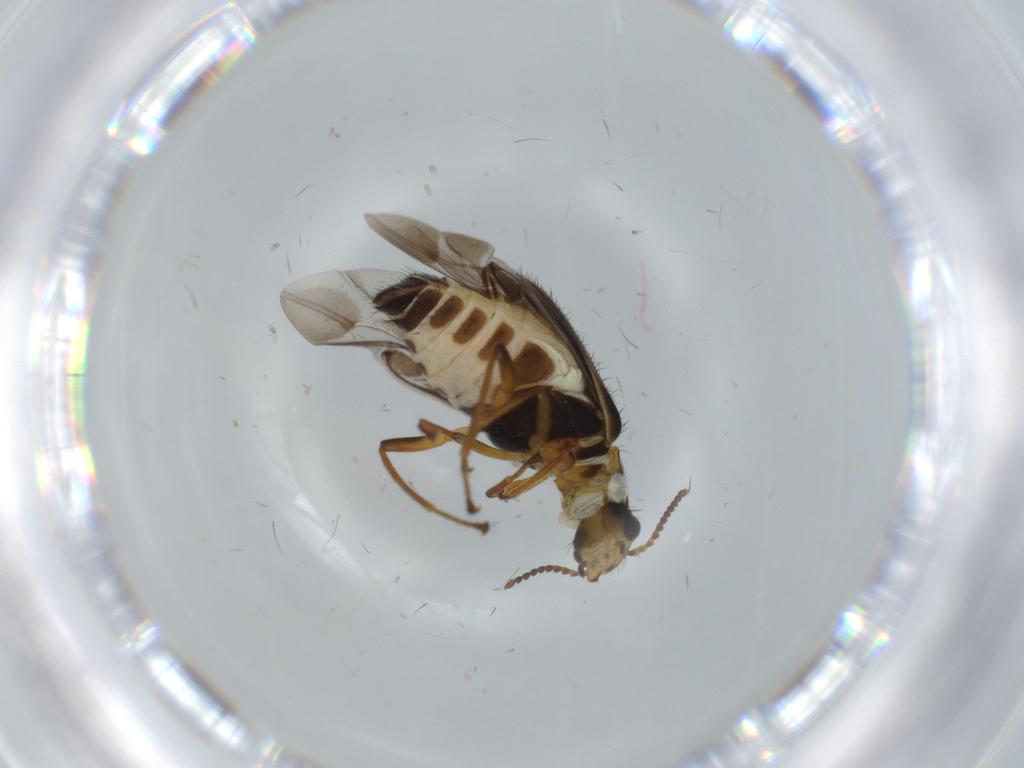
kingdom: Animalia
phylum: Arthropoda
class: Insecta
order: Coleoptera
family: Melyridae
